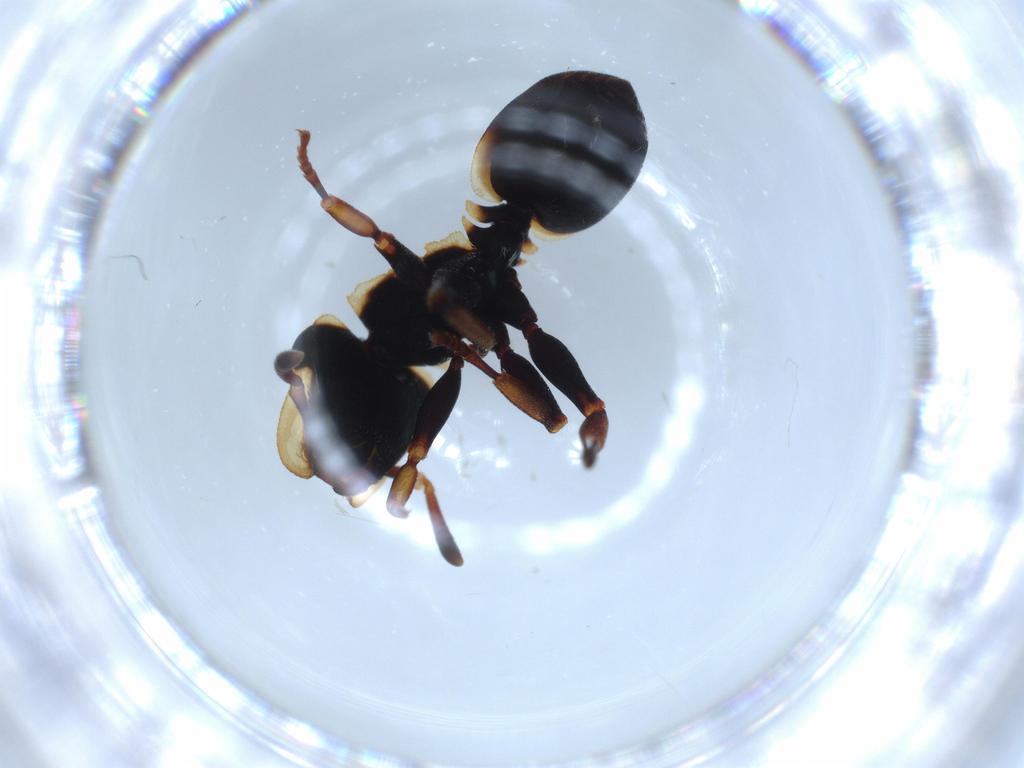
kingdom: Animalia
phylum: Arthropoda
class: Insecta
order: Hymenoptera
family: Formicidae
